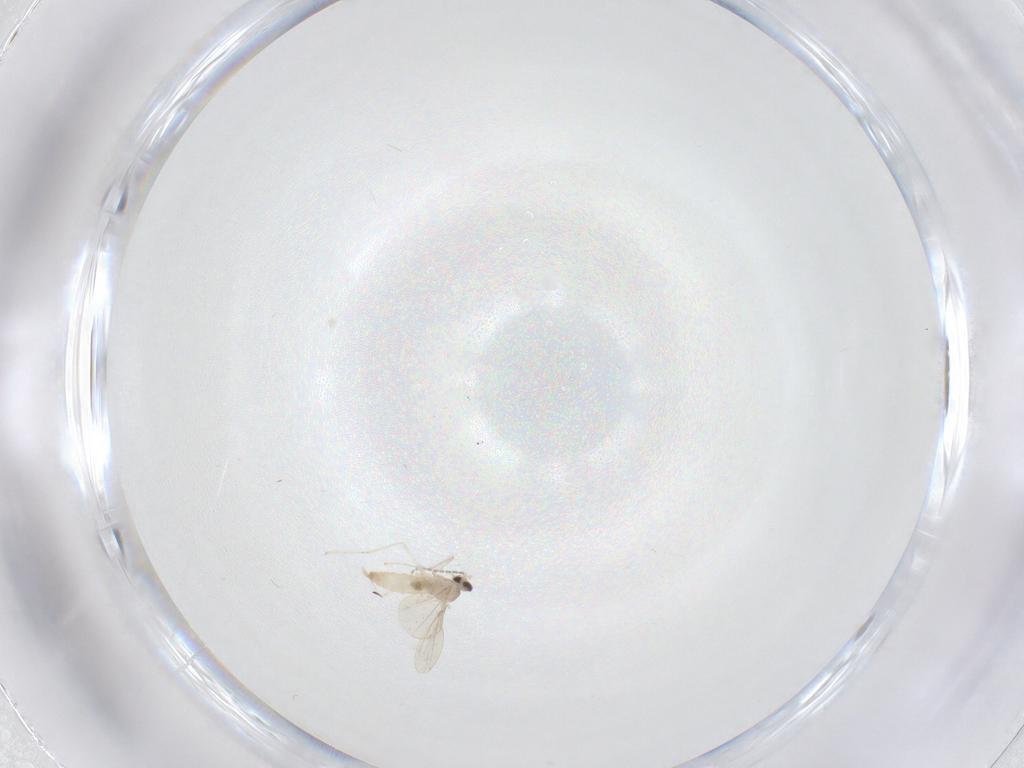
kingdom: Animalia
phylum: Arthropoda
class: Insecta
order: Diptera
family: Cecidomyiidae
